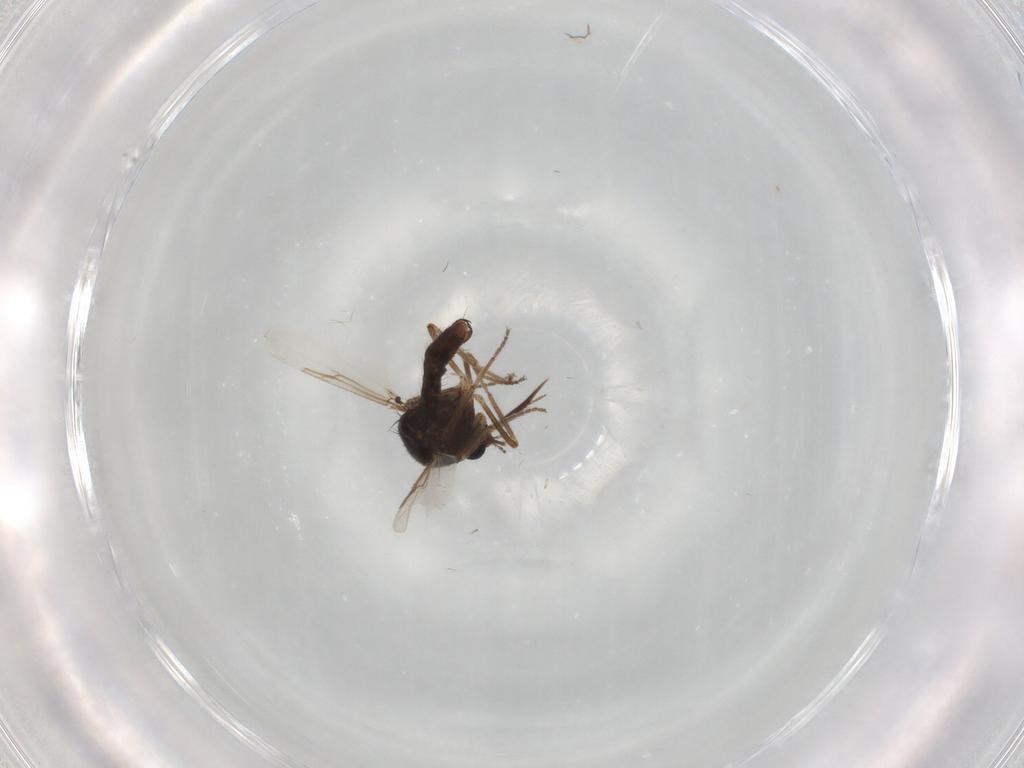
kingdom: Animalia
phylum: Arthropoda
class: Insecta
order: Diptera
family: Ceratopogonidae
